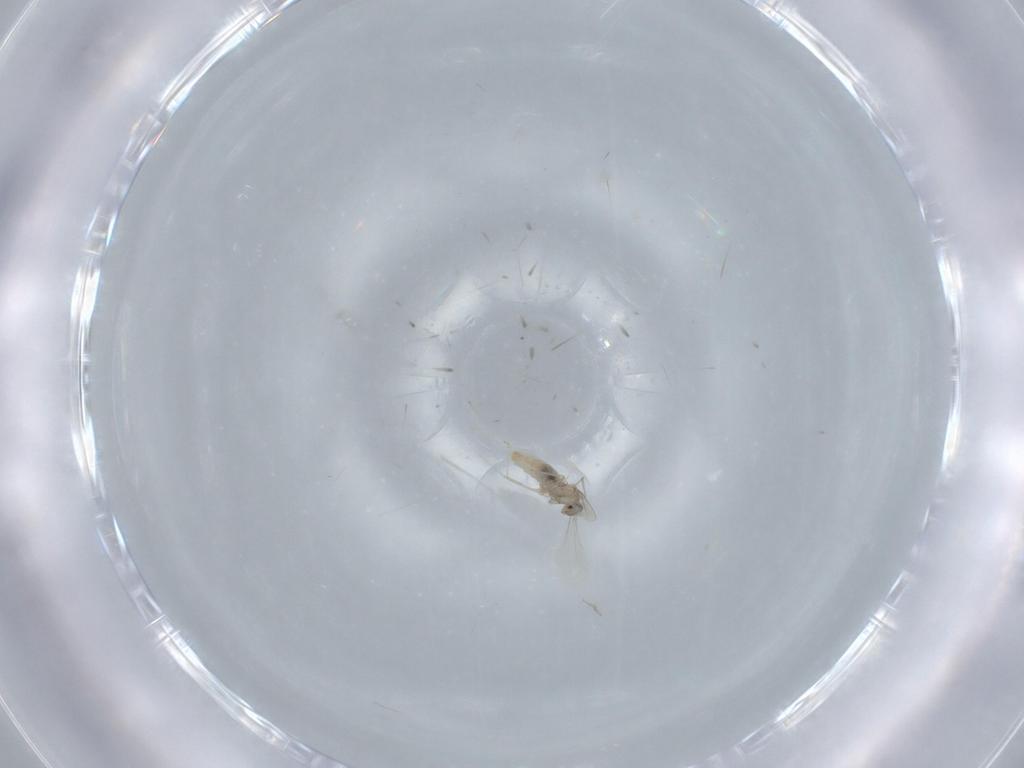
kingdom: Animalia
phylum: Arthropoda
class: Insecta
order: Diptera
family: Cecidomyiidae
